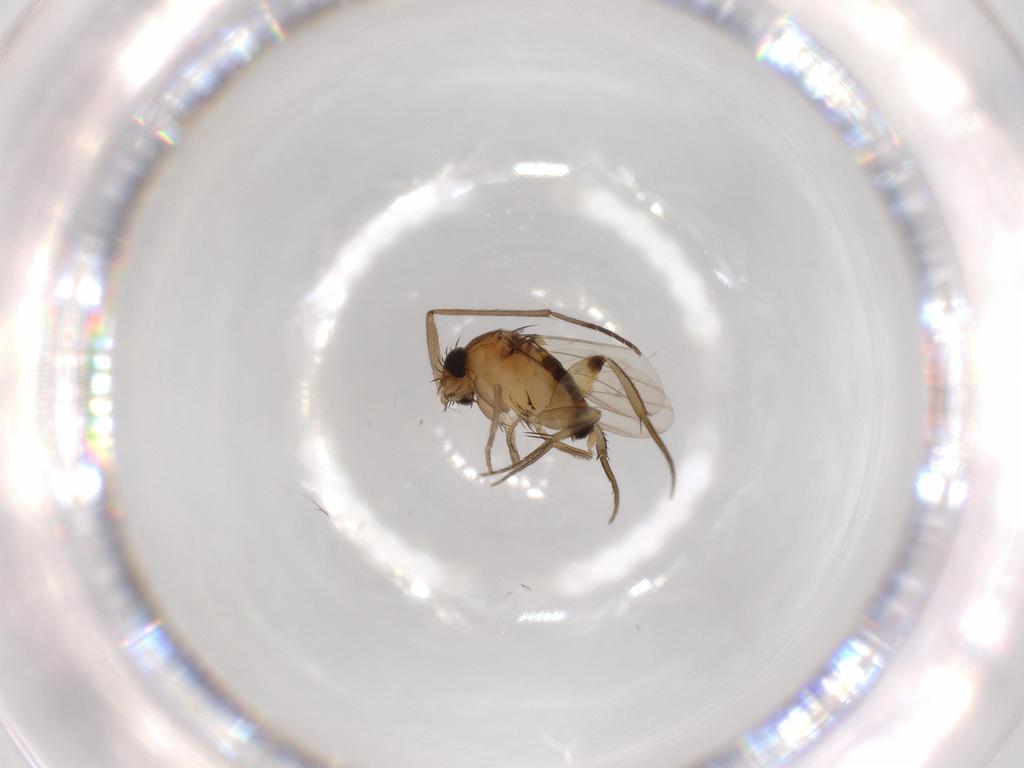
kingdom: Animalia
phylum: Arthropoda
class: Insecta
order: Diptera
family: Phoridae
